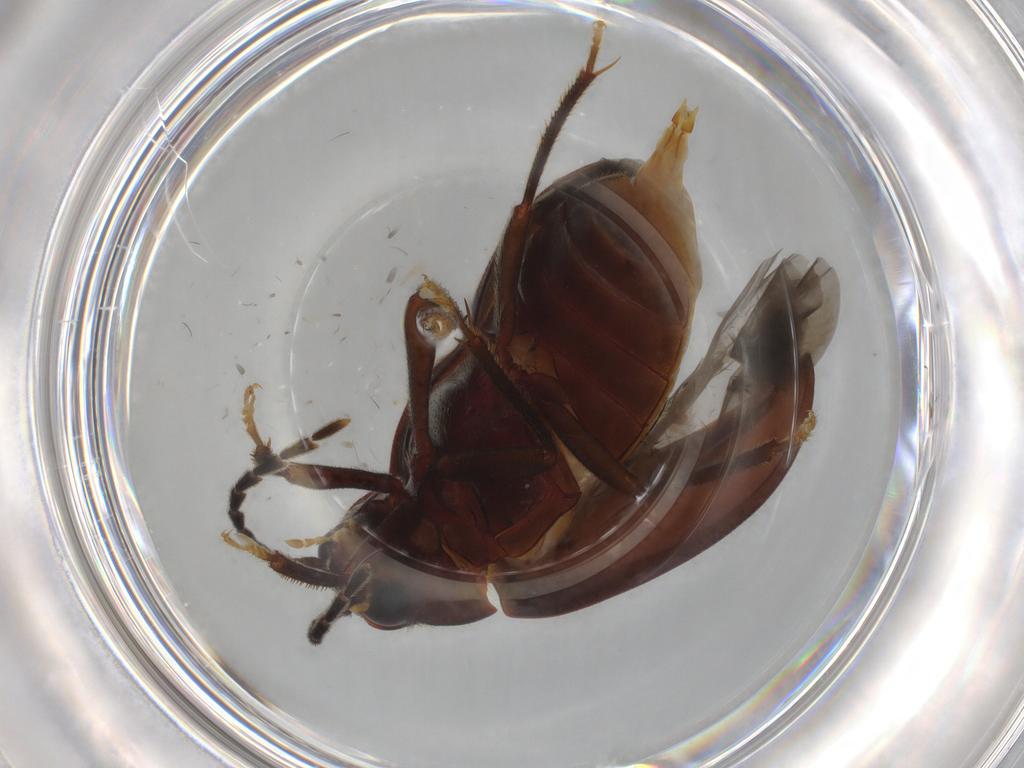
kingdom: Animalia
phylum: Arthropoda
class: Insecta
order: Coleoptera
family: Ptilodactylidae
